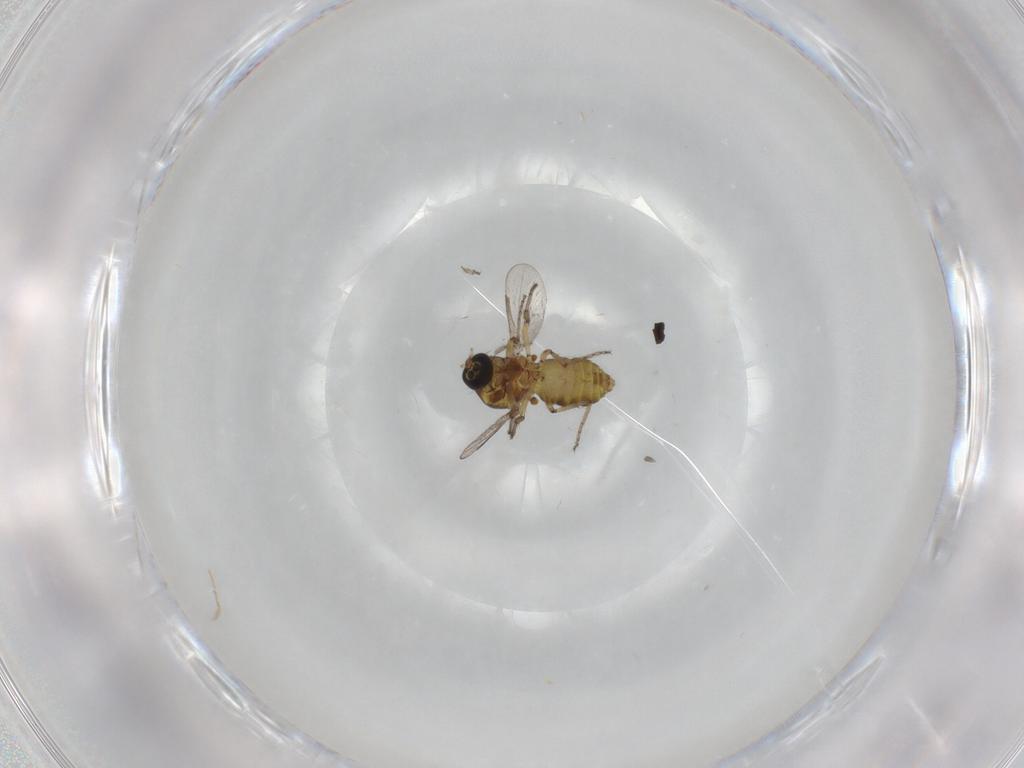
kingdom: Animalia
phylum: Arthropoda
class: Insecta
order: Diptera
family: Ceratopogonidae
